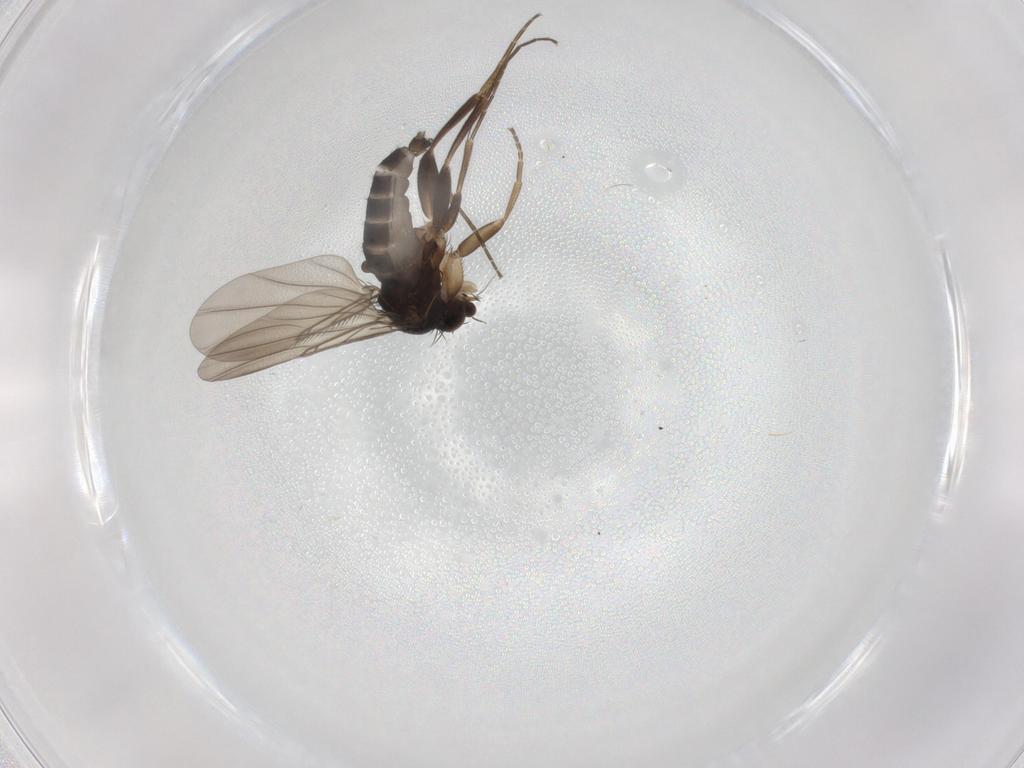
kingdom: Animalia
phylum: Arthropoda
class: Insecta
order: Diptera
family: Phoridae
